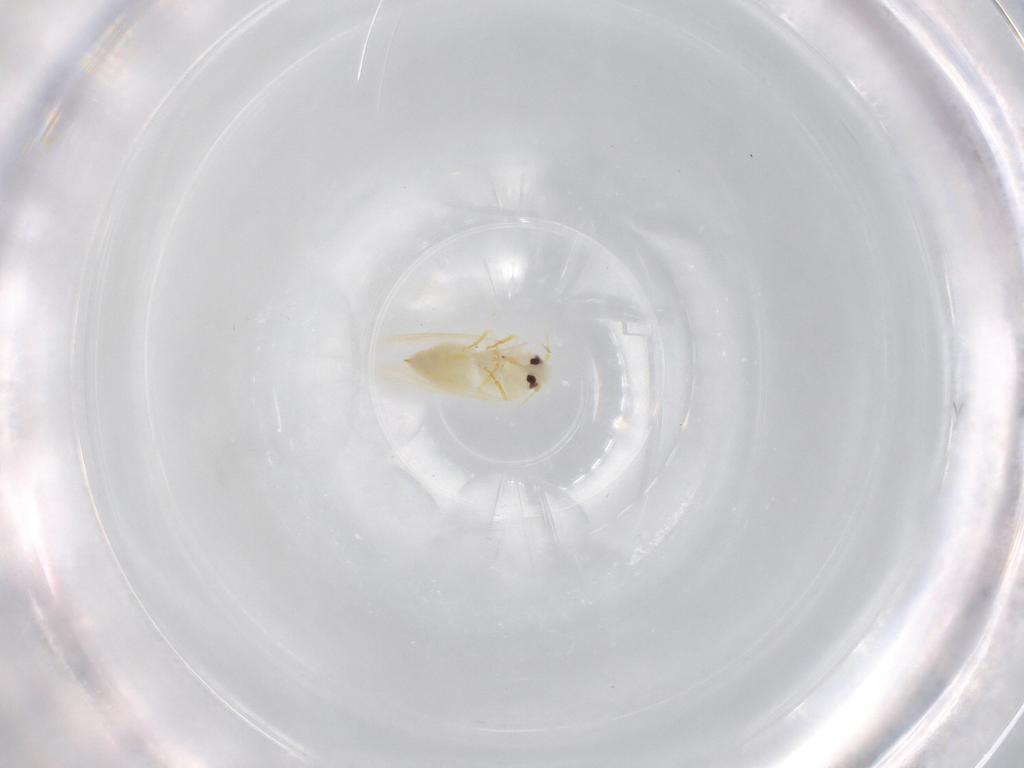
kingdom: Animalia
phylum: Arthropoda
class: Insecta
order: Hemiptera
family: Aleyrodidae
